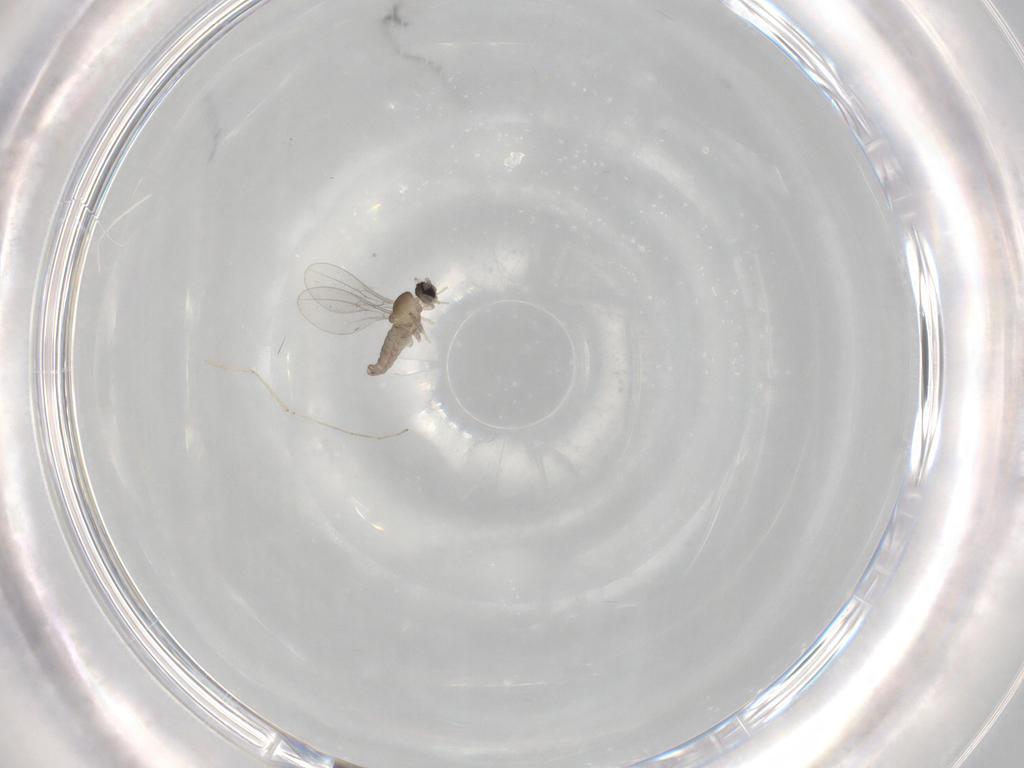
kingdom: Animalia
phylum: Arthropoda
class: Insecta
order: Diptera
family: Cecidomyiidae
